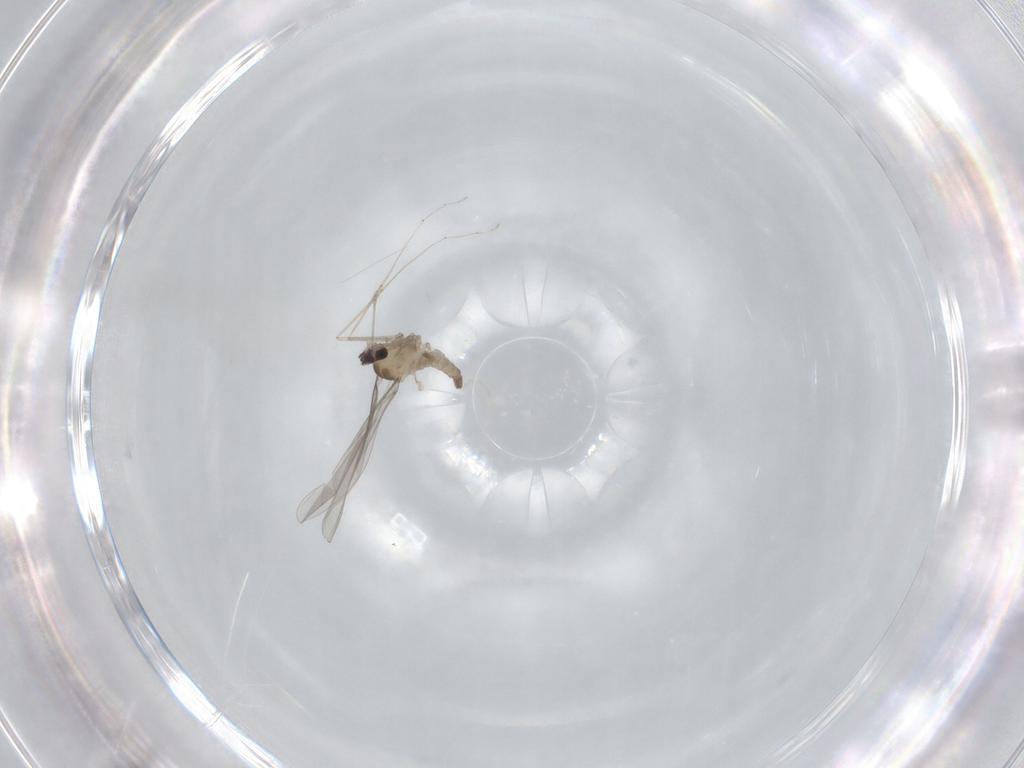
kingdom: Animalia
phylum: Arthropoda
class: Insecta
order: Diptera
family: Cecidomyiidae
